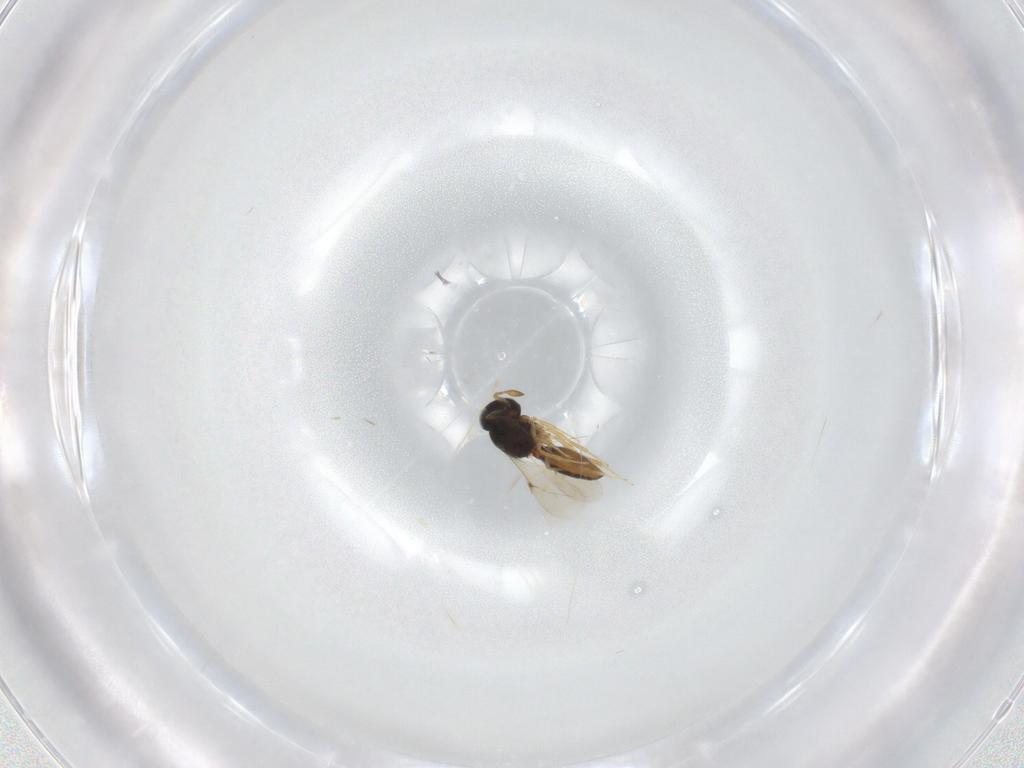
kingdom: Animalia
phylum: Arthropoda
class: Insecta
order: Hymenoptera
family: Scelionidae
